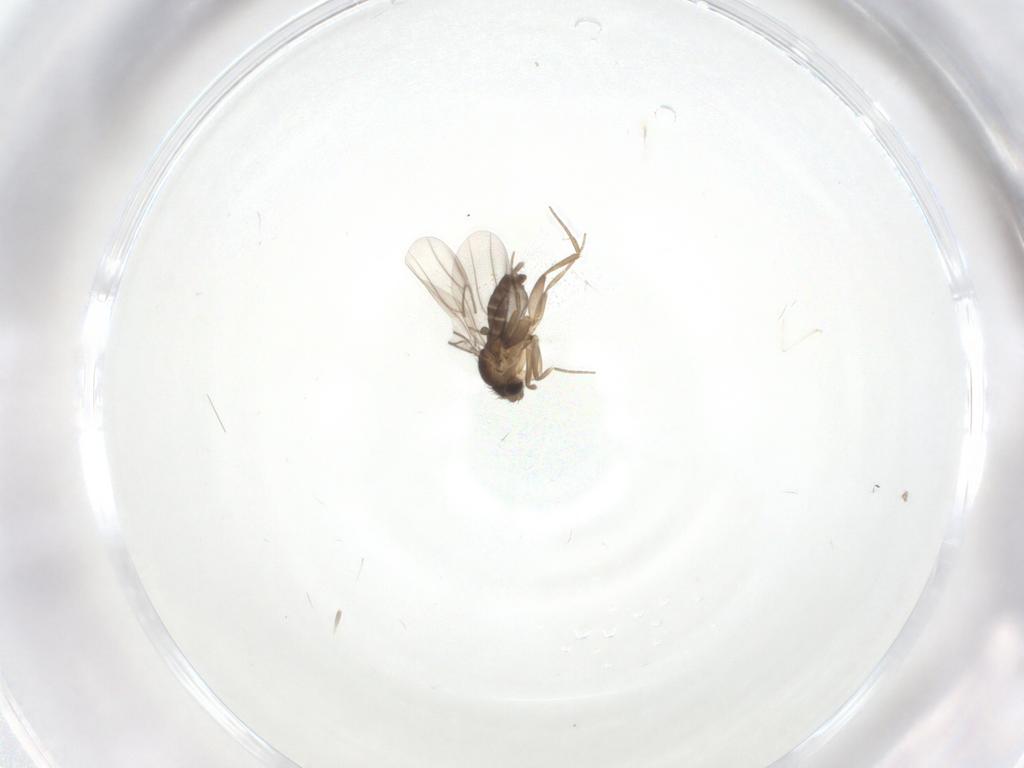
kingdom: Animalia
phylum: Arthropoda
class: Insecta
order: Diptera
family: Phoridae
